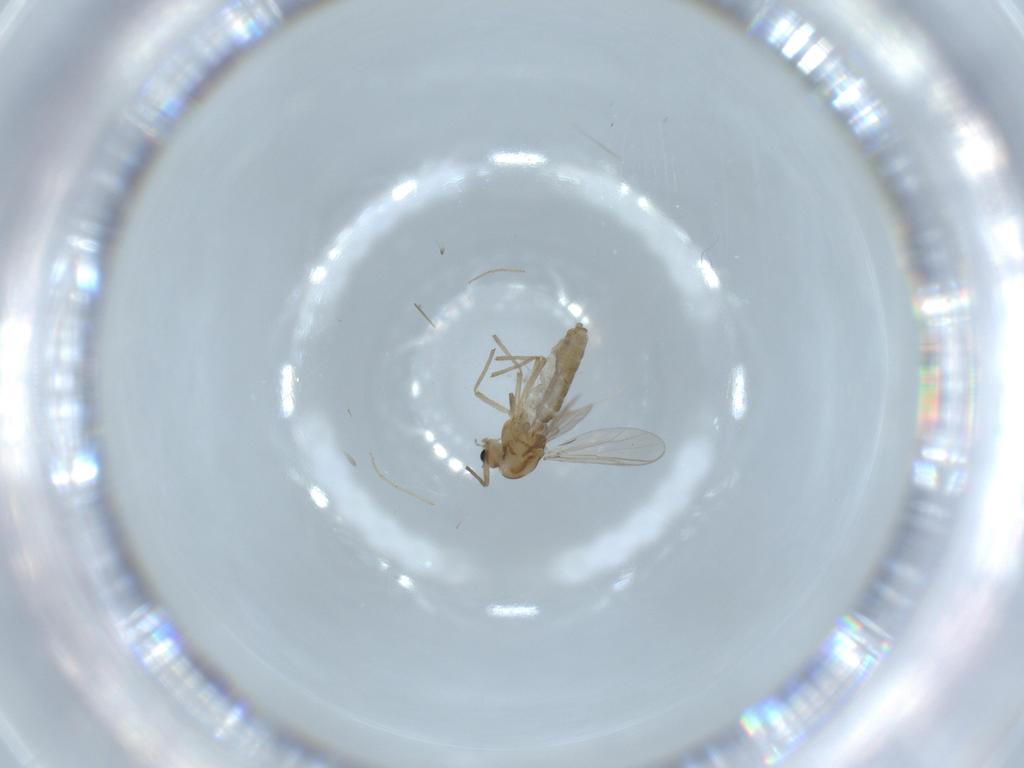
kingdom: Animalia
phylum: Arthropoda
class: Insecta
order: Diptera
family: Chironomidae
